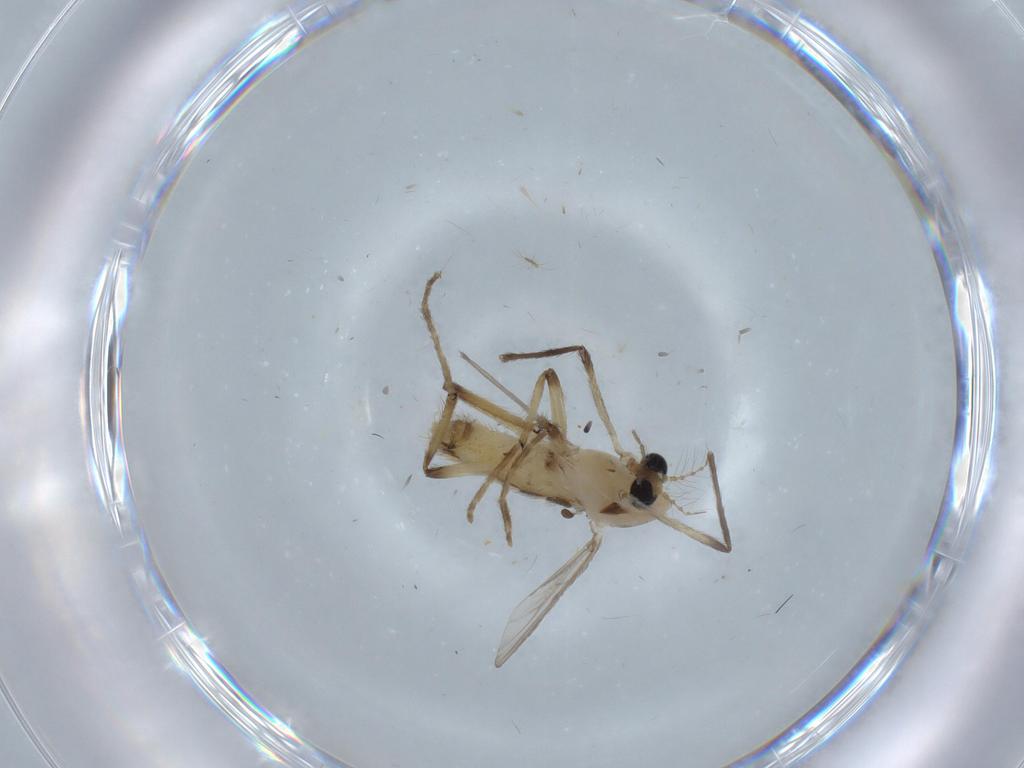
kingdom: Animalia
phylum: Arthropoda
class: Insecta
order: Diptera
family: Chironomidae
